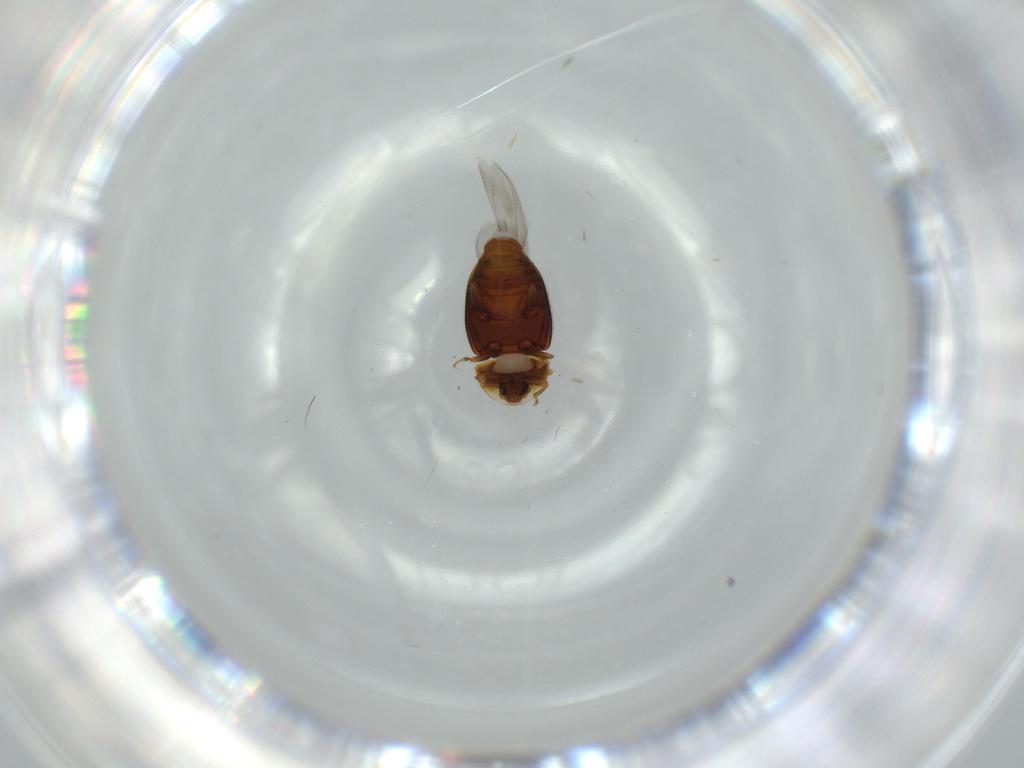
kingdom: Animalia
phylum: Arthropoda
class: Insecta
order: Coleoptera
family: Corylophidae
